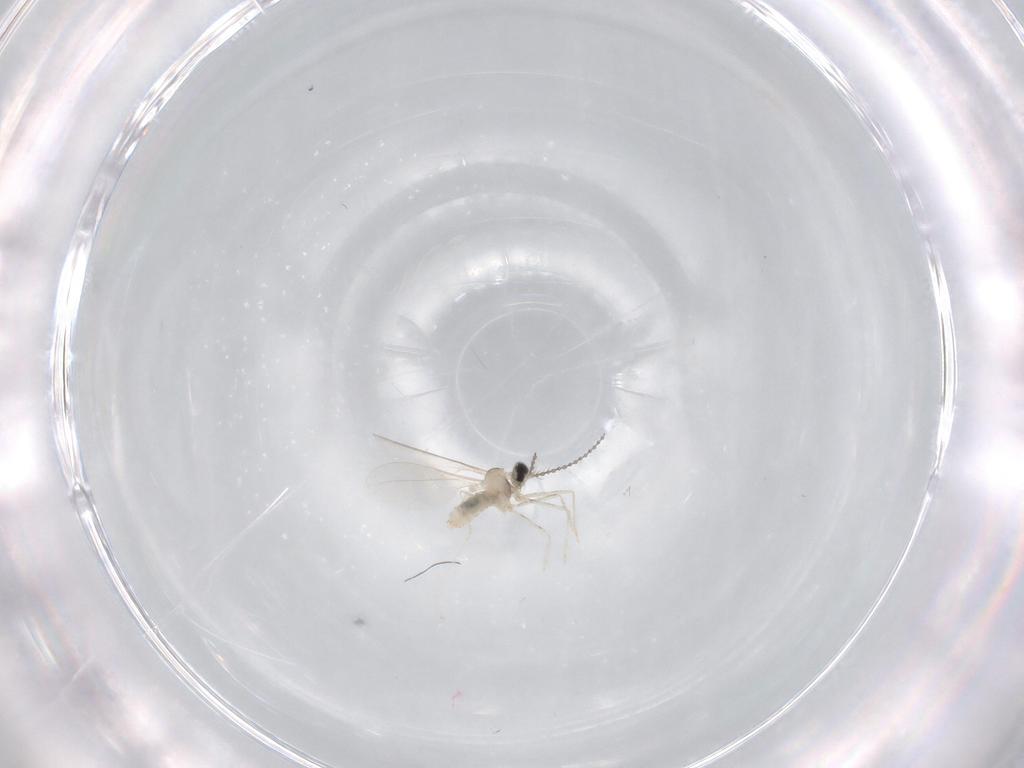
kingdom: Animalia
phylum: Arthropoda
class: Insecta
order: Diptera
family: Cecidomyiidae
